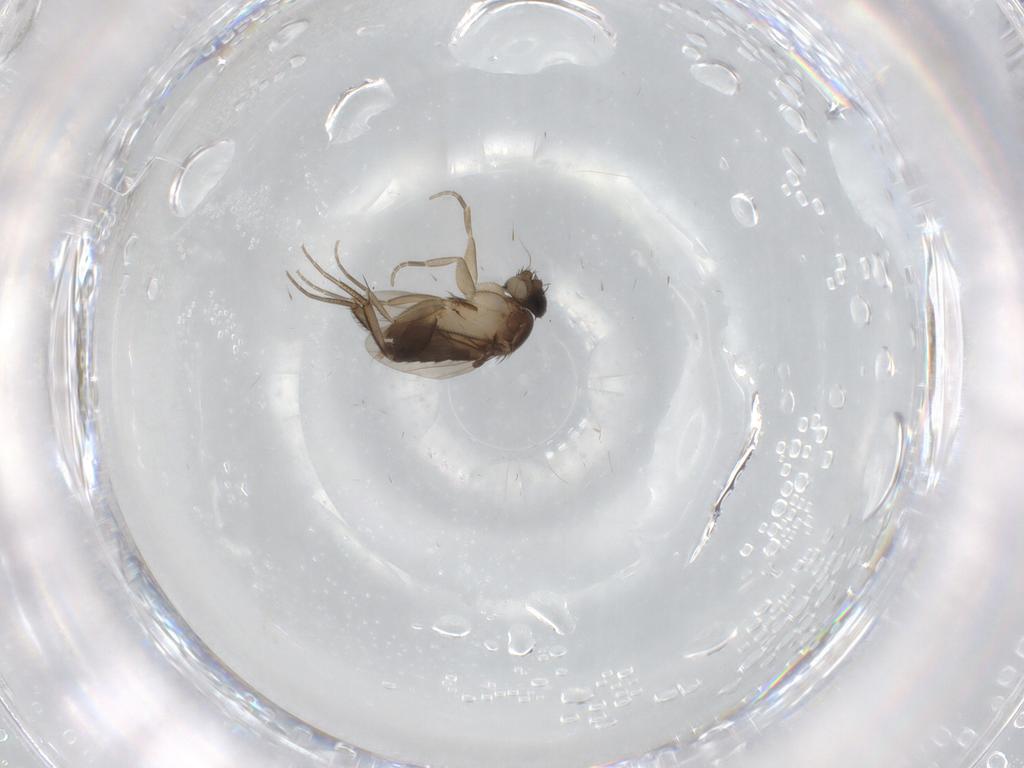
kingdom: Animalia
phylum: Arthropoda
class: Insecta
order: Diptera
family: Phoridae
